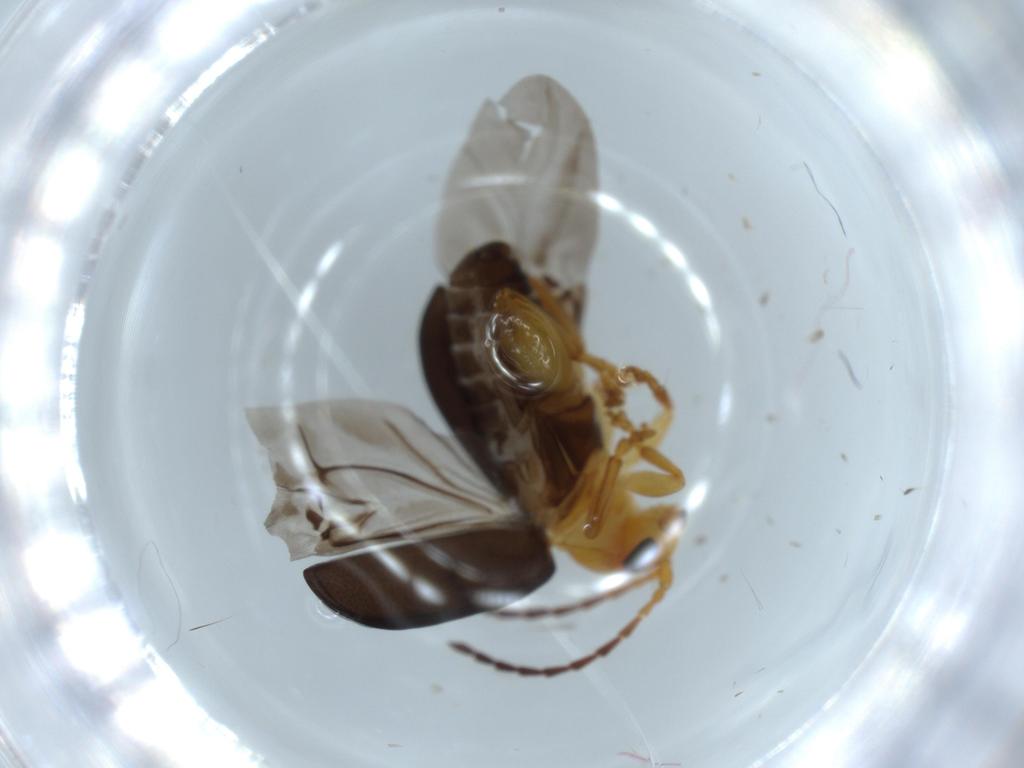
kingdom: Animalia
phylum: Arthropoda
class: Insecta
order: Coleoptera
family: Chrysomelidae
